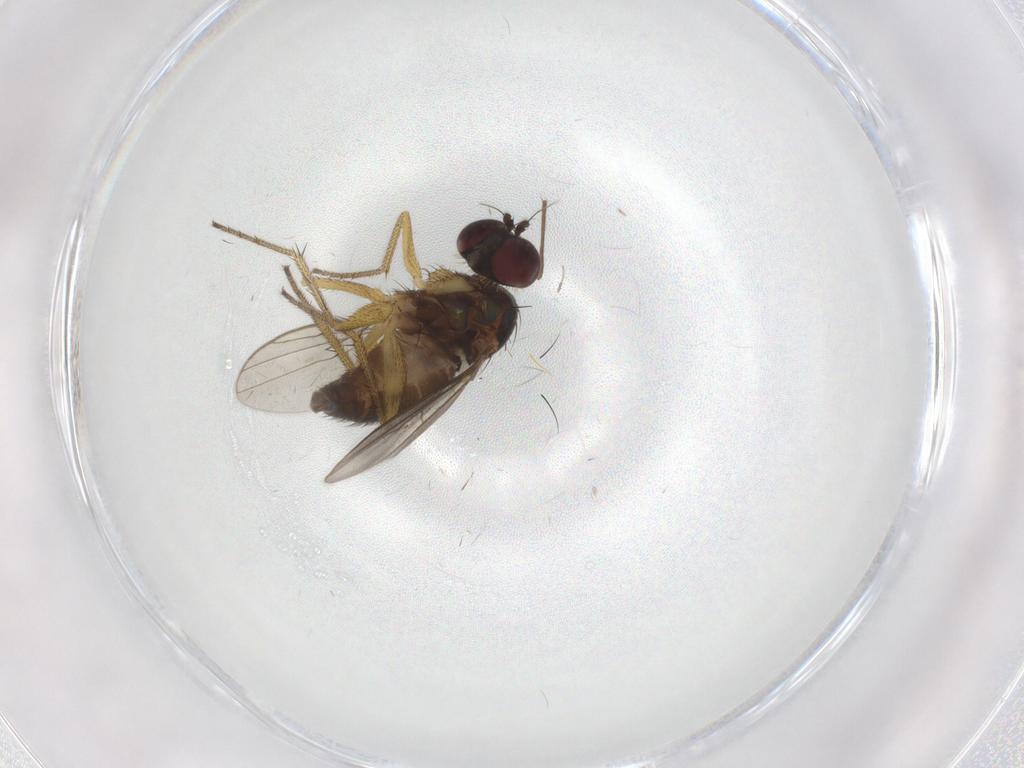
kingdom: Animalia
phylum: Arthropoda
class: Insecta
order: Diptera
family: Dolichopodidae
